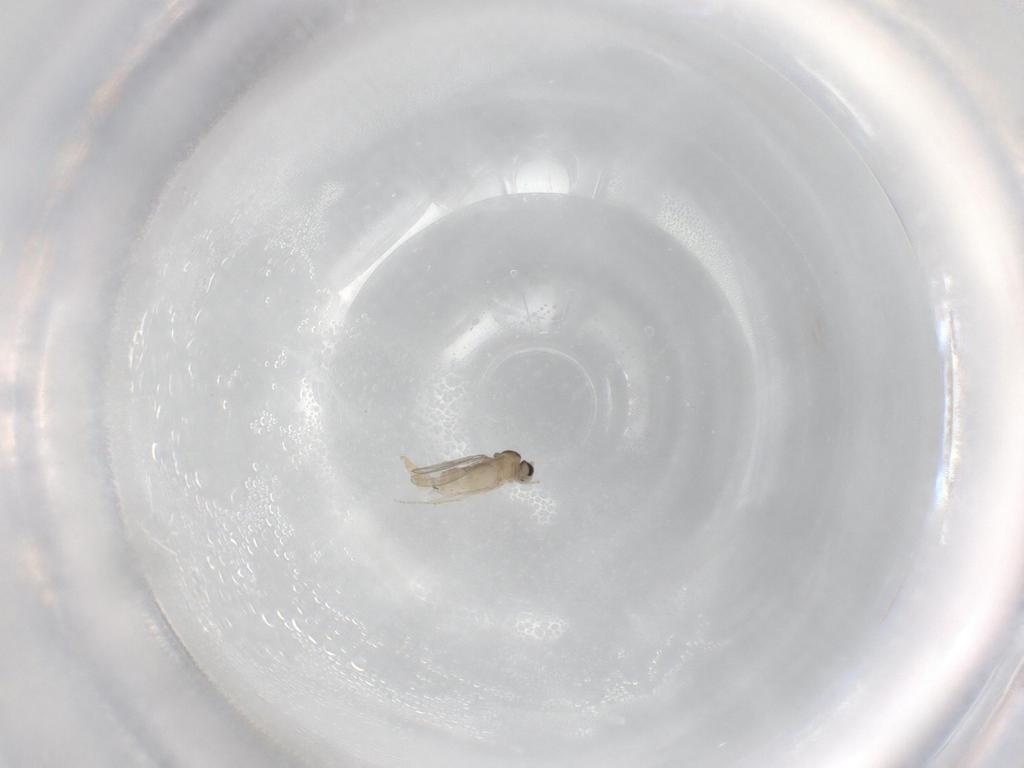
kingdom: Animalia
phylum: Arthropoda
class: Insecta
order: Diptera
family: Cecidomyiidae
